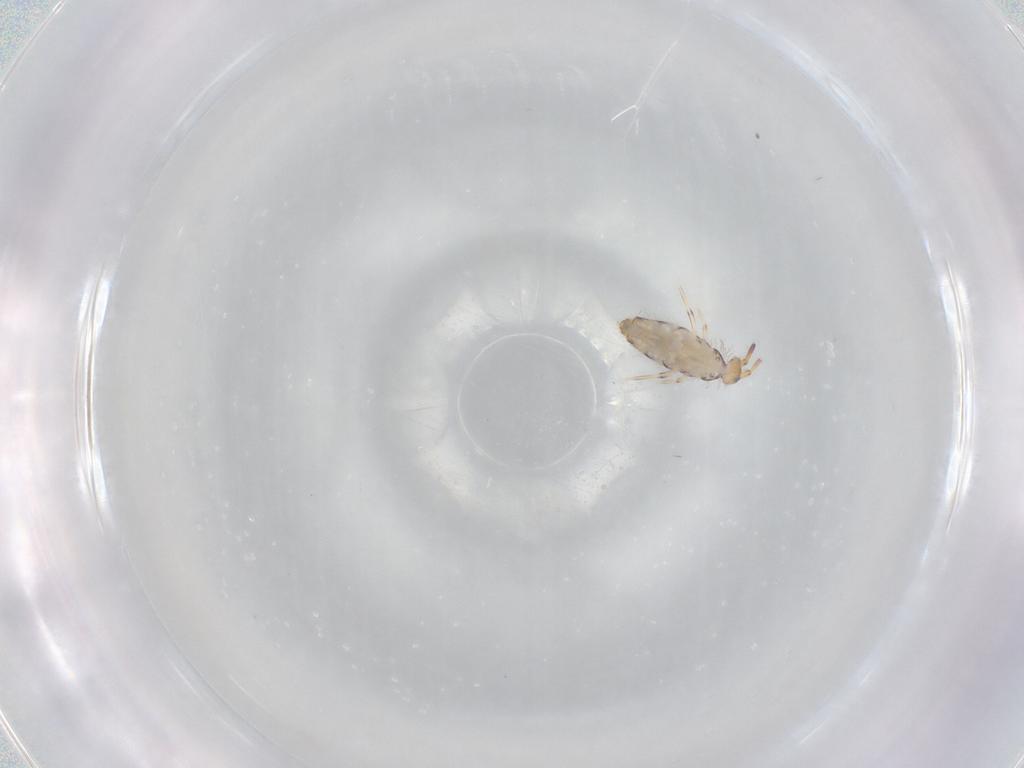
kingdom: Animalia
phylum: Arthropoda
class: Collembola
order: Entomobryomorpha
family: Entomobryidae
